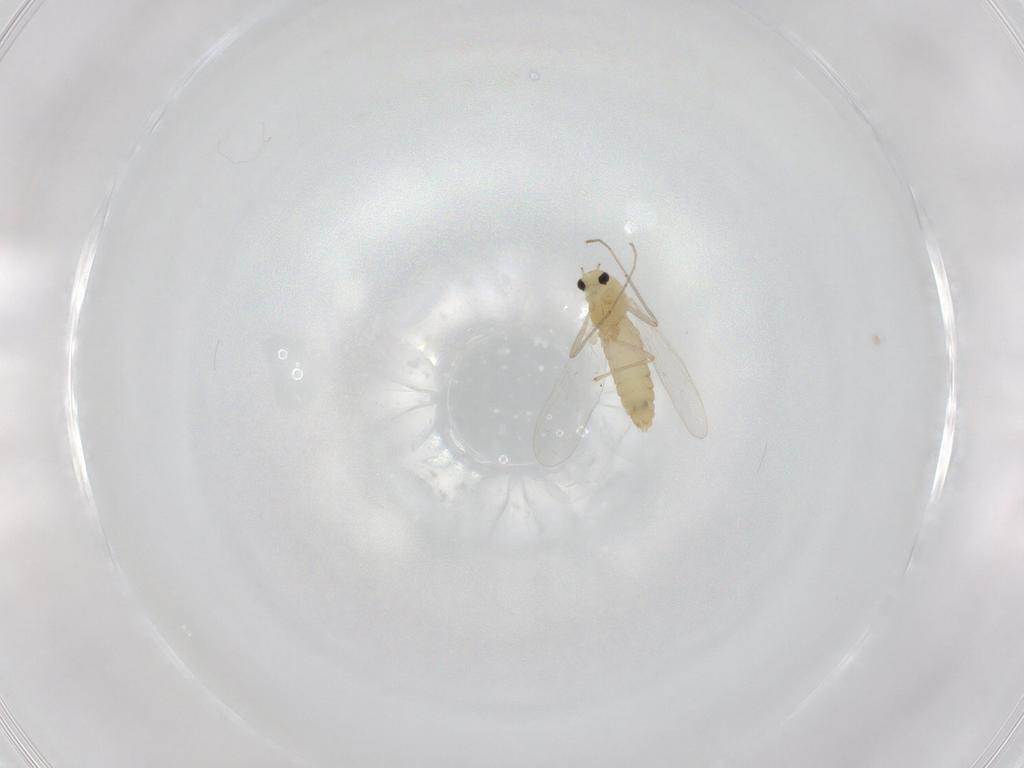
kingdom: Animalia
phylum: Arthropoda
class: Insecta
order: Diptera
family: Chironomidae
